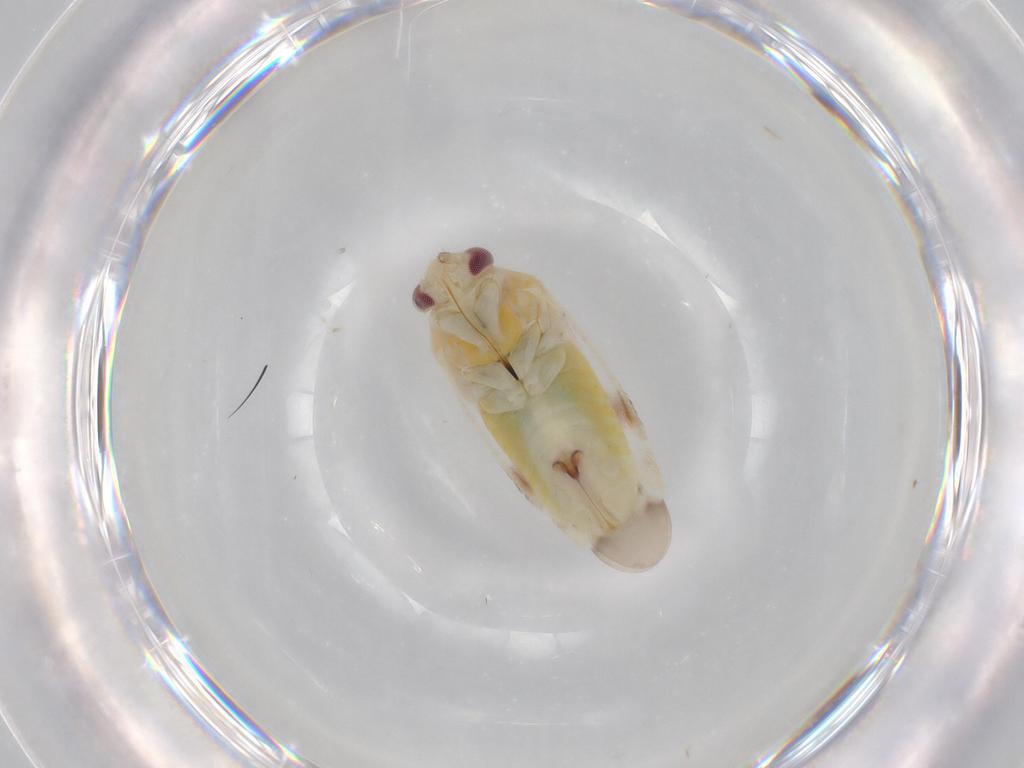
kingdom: Animalia
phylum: Arthropoda
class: Insecta
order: Hemiptera
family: Miridae
